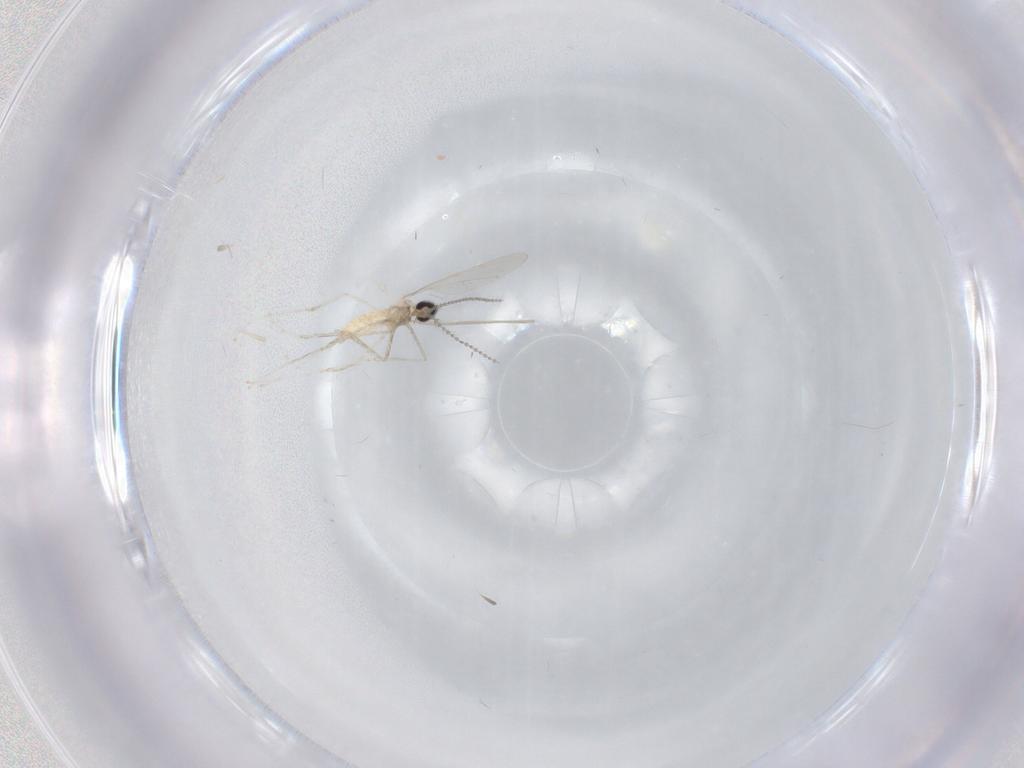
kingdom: Animalia
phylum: Arthropoda
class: Insecta
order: Diptera
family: Cecidomyiidae
